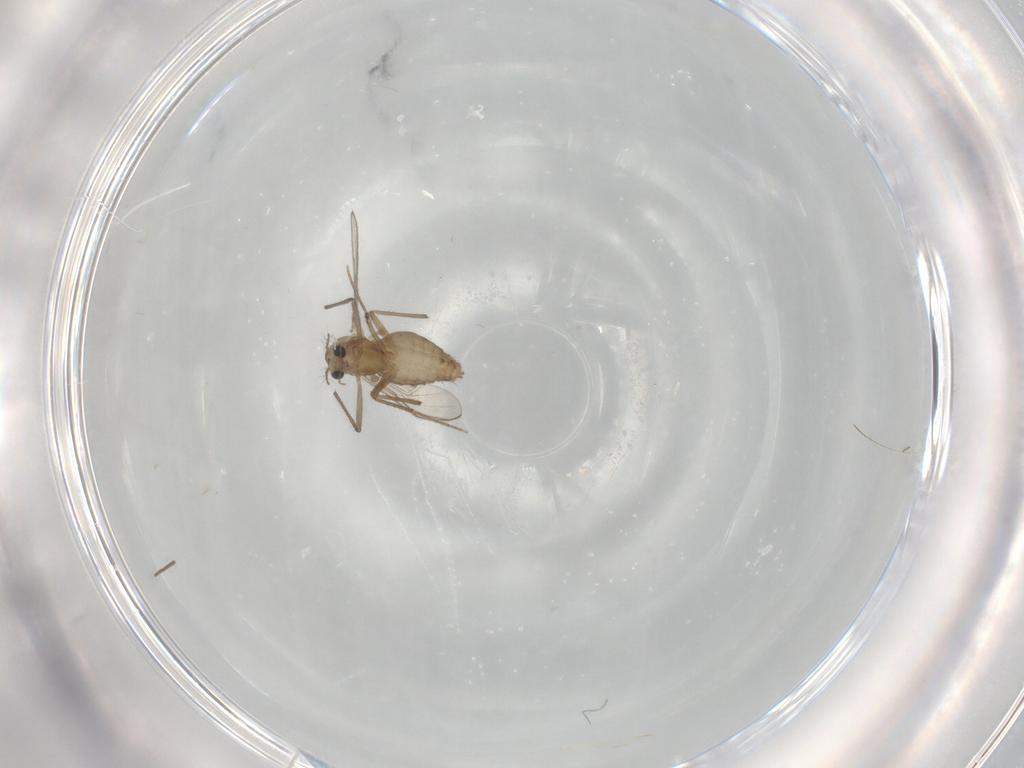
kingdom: Animalia
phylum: Arthropoda
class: Insecta
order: Diptera
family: Chironomidae
